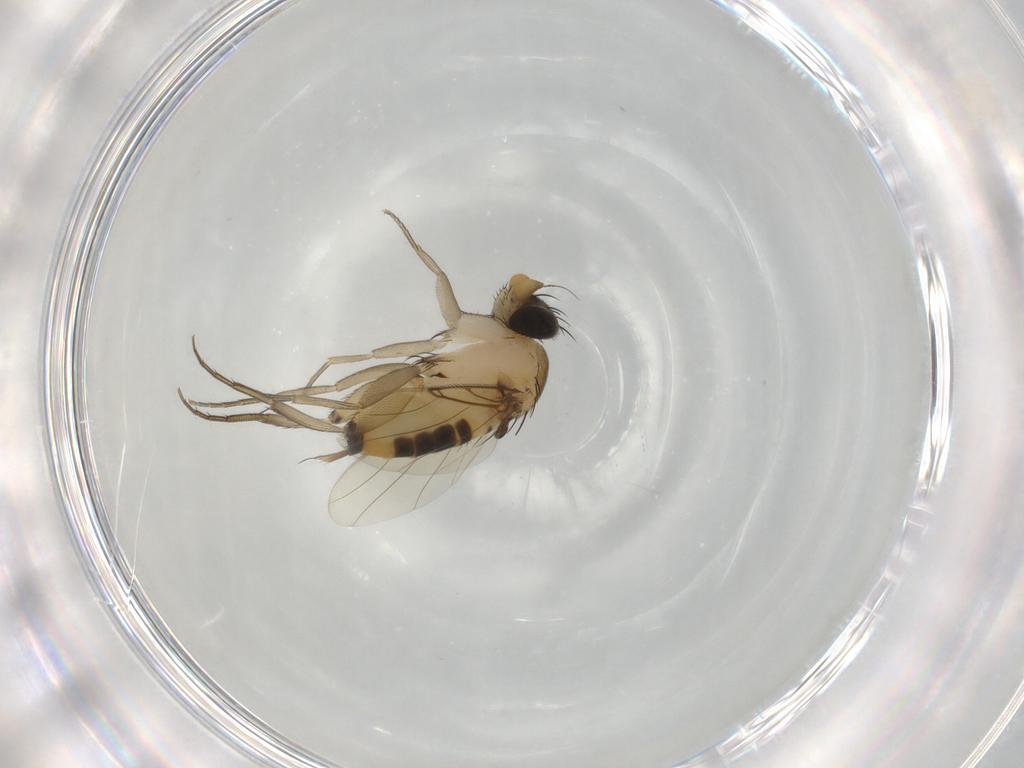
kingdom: Animalia
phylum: Arthropoda
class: Insecta
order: Diptera
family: Phoridae
